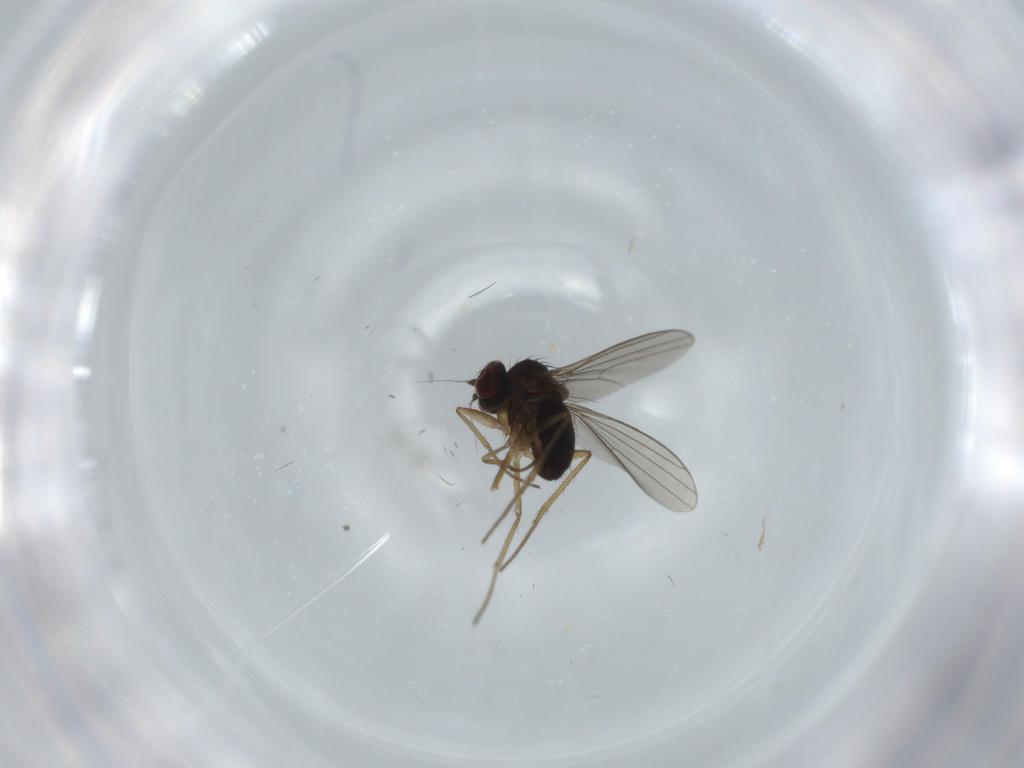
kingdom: Animalia
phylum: Arthropoda
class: Insecta
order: Diptera
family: Dolichopodidae
